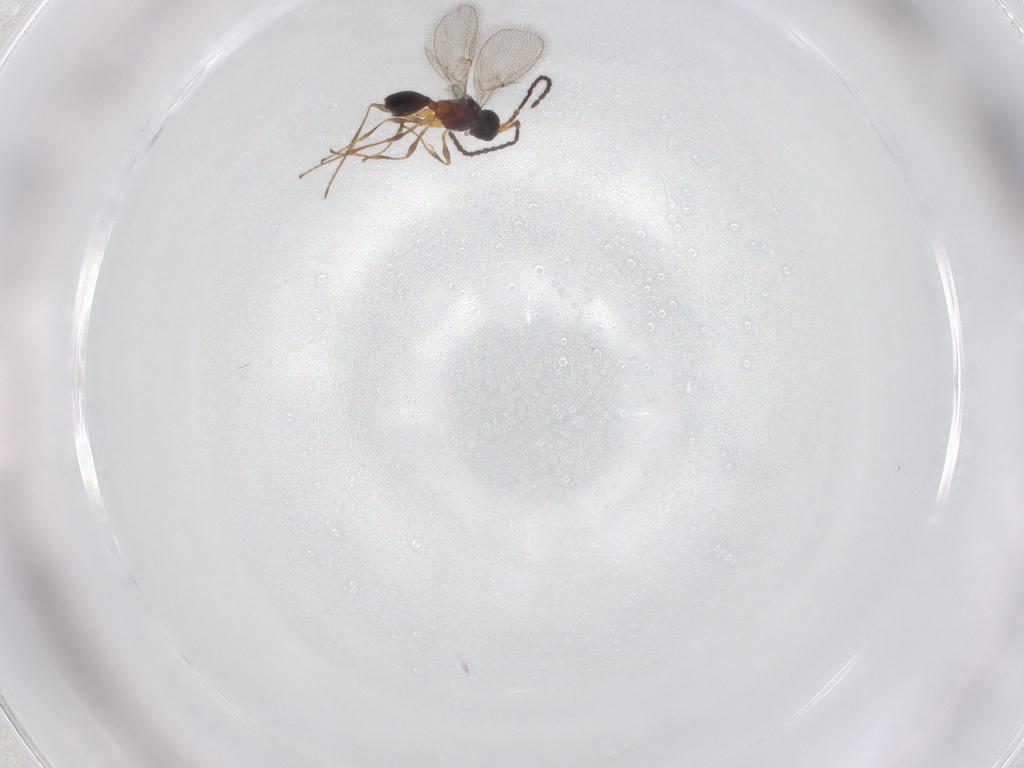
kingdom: Animalia
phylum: Arthropoda
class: Insecta
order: Hymenoptera
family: Diapriidae
